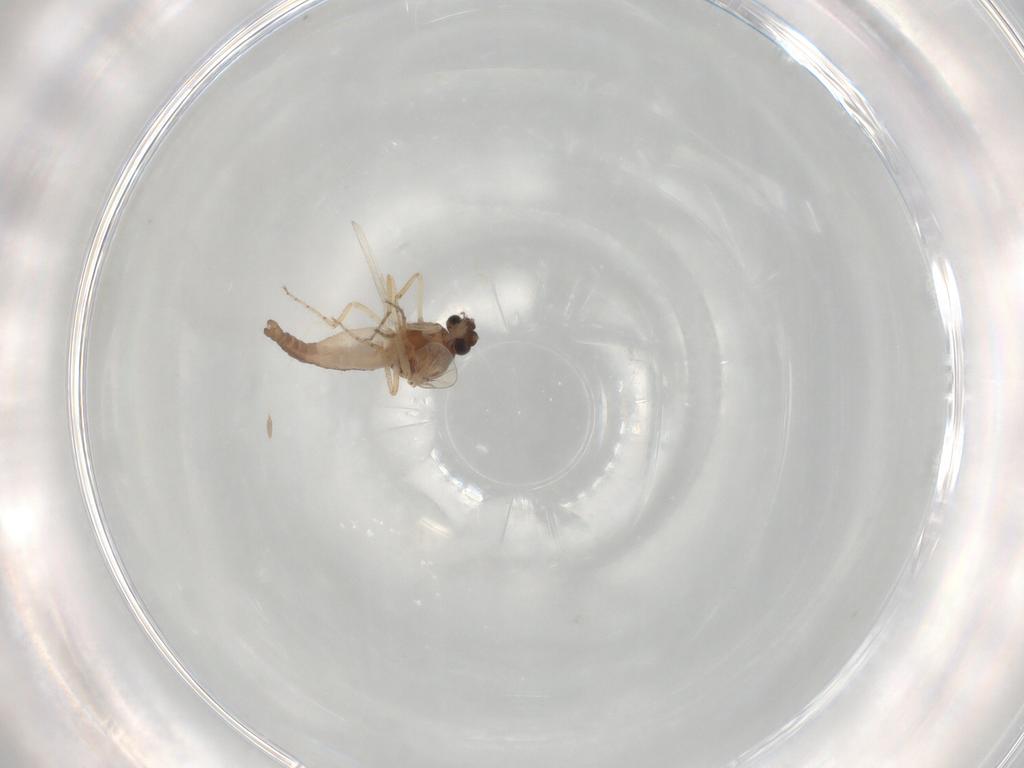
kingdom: Animalia
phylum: Arthropoda
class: Insecta
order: Diptera
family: Ceratopogonidae
